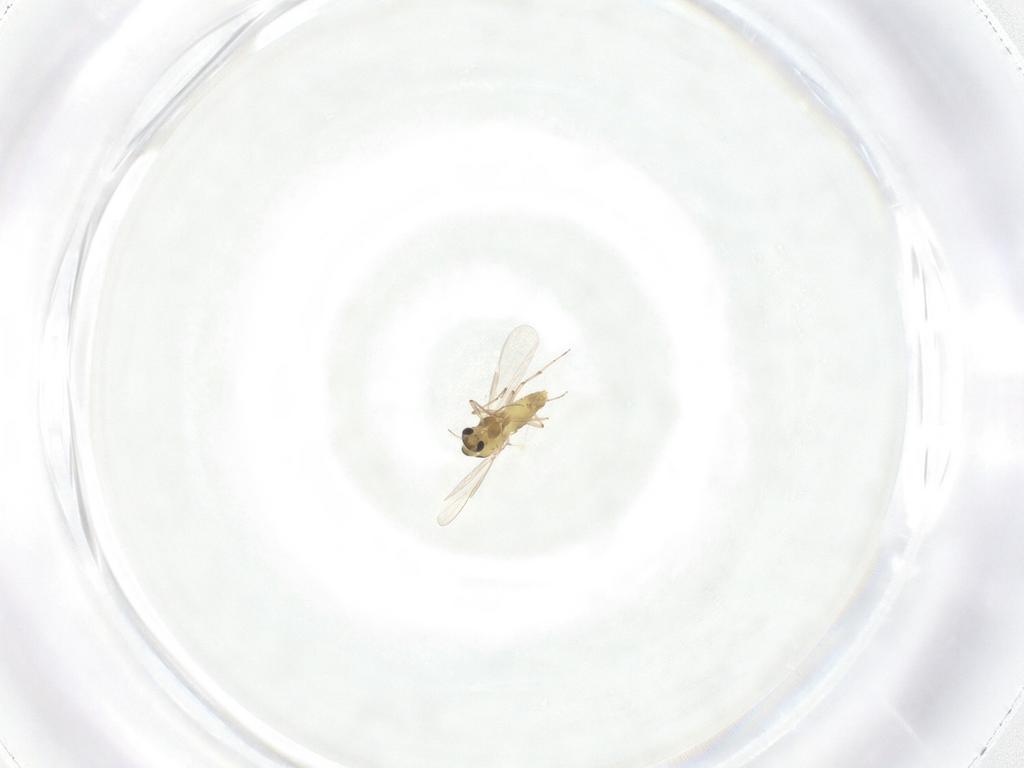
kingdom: Animalia
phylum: Arthropoda
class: Insecta
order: Diptera
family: Chironomidae
